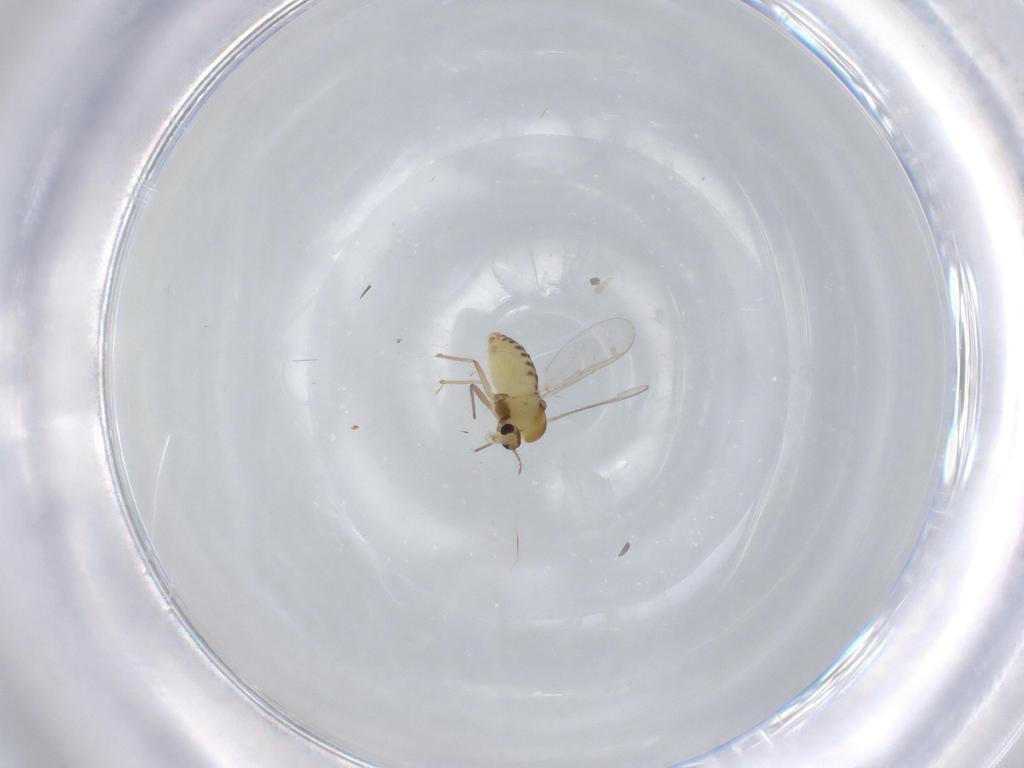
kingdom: Animalia
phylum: Arthropoda
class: Insecta
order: Diptera
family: Chironomidae
